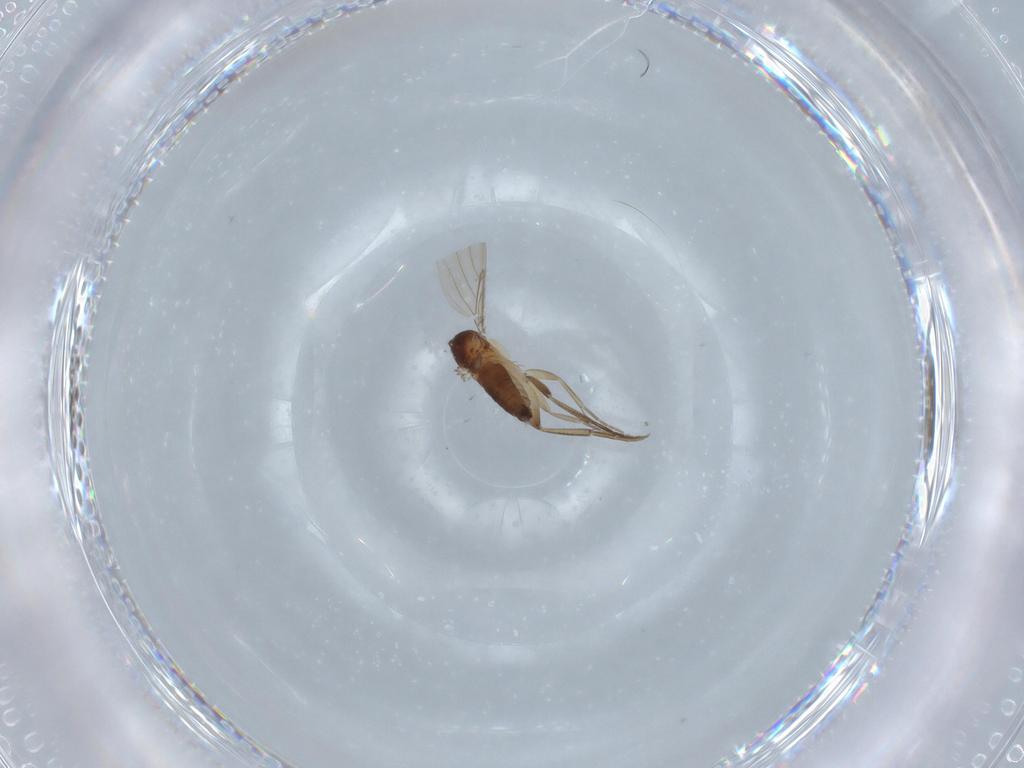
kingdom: Animalia
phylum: Arthropoda
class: Insecta
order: Diptera
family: Phoridae
